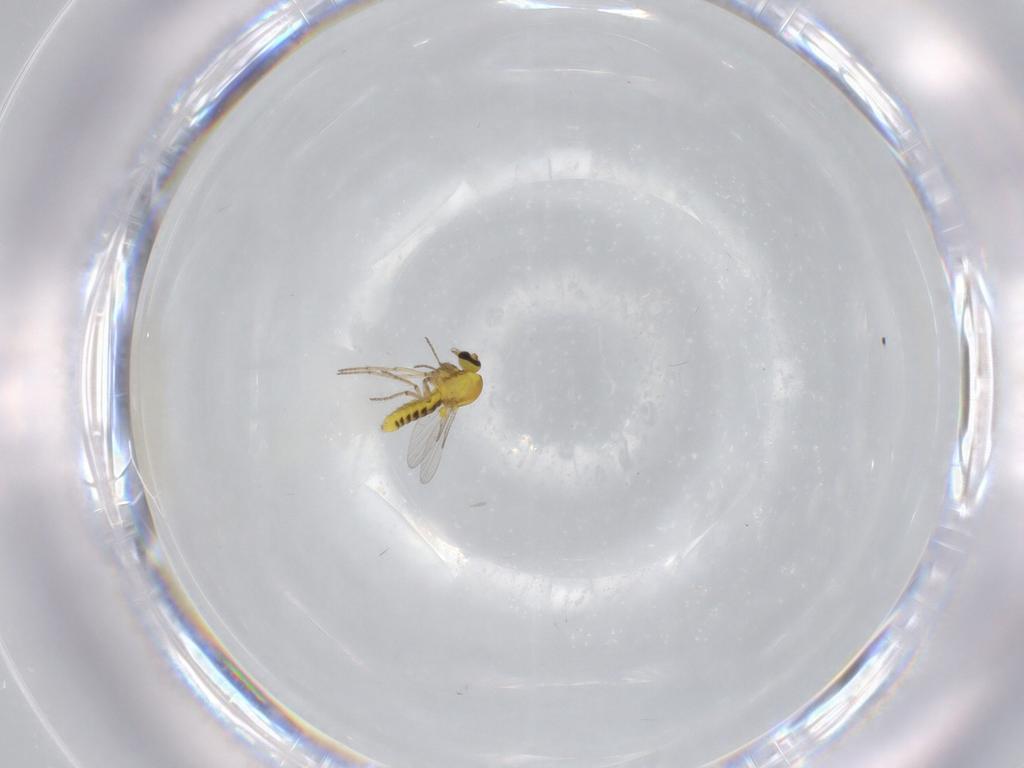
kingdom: Animalia
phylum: Arthropoda
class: Insecta
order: Diptera
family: Ceratopogonidae
